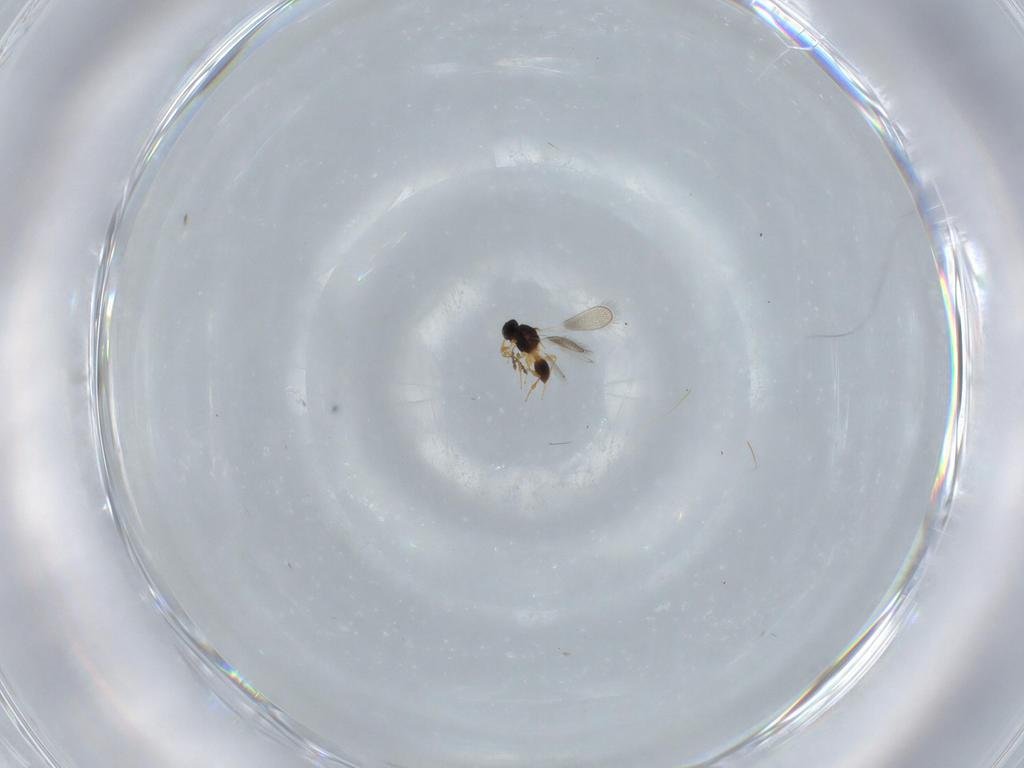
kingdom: Animalia
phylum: Arthropoda
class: Insecta
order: Hymenoptera
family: Platygastridae
